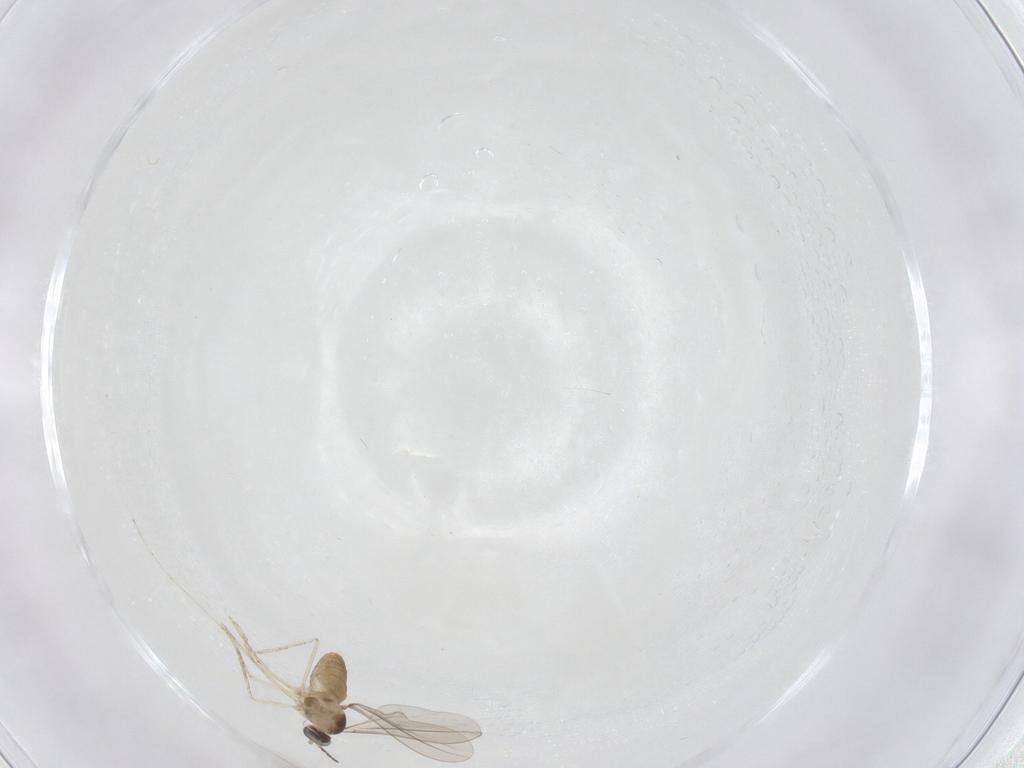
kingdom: Animalia
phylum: Arthropoda
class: Insecta
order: Diptera
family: Cecidomyiidae
